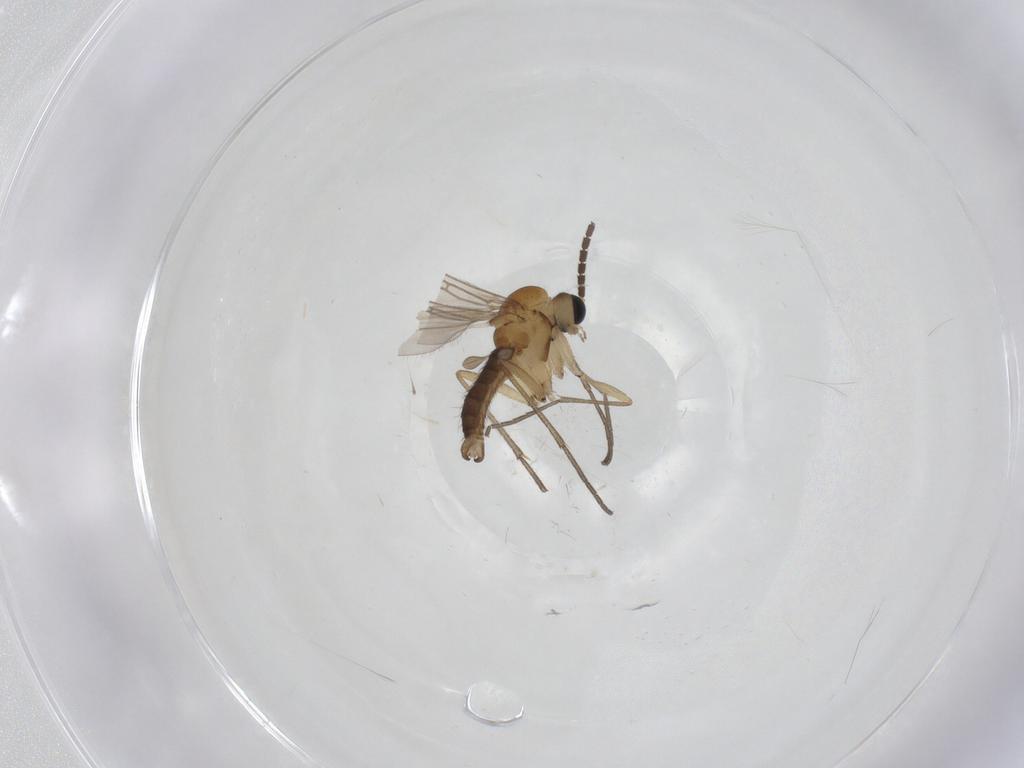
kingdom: Animalia
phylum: Arthropoda
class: Insecta
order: Diptera
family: Sciaridae
